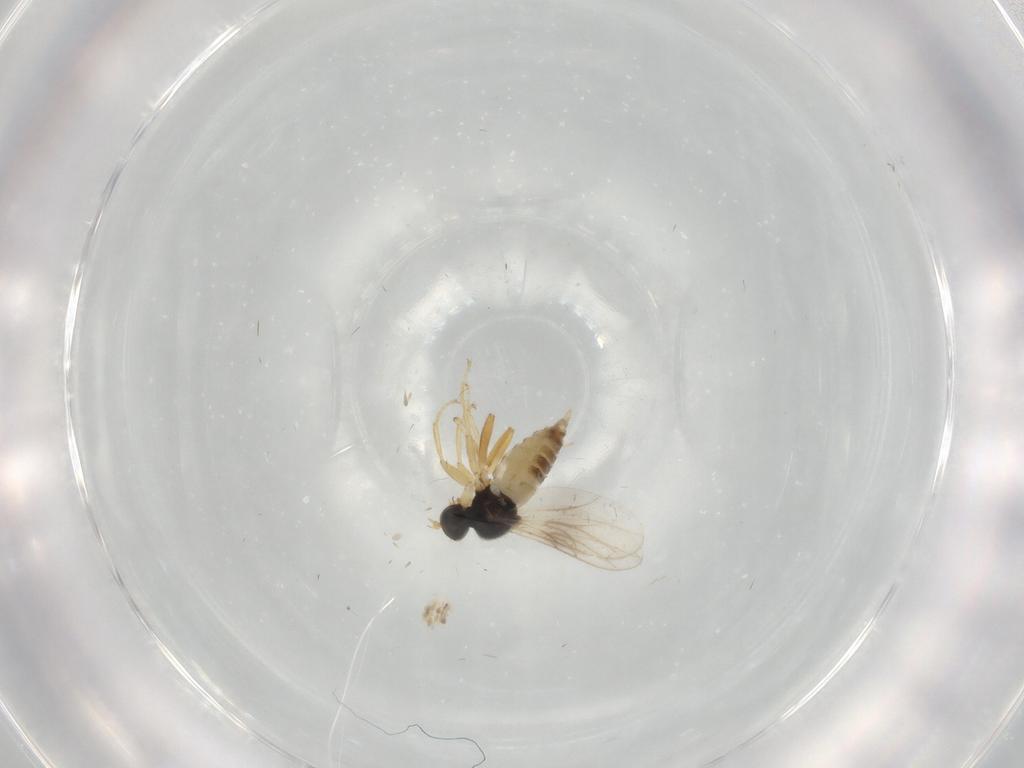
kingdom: Animalia
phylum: Arthropoda
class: Insecta
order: Diptera
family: Hybotidae
